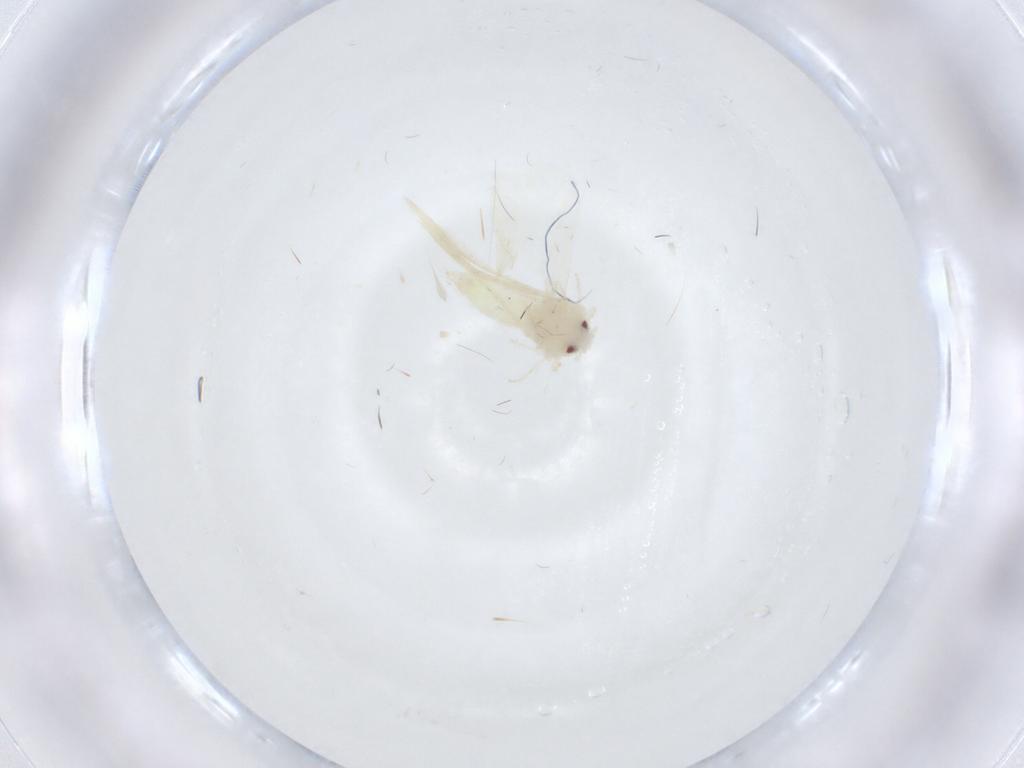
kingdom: Animalia
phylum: Arthropoda
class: Insecta
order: Hemiptera
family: Aleyrodidae
